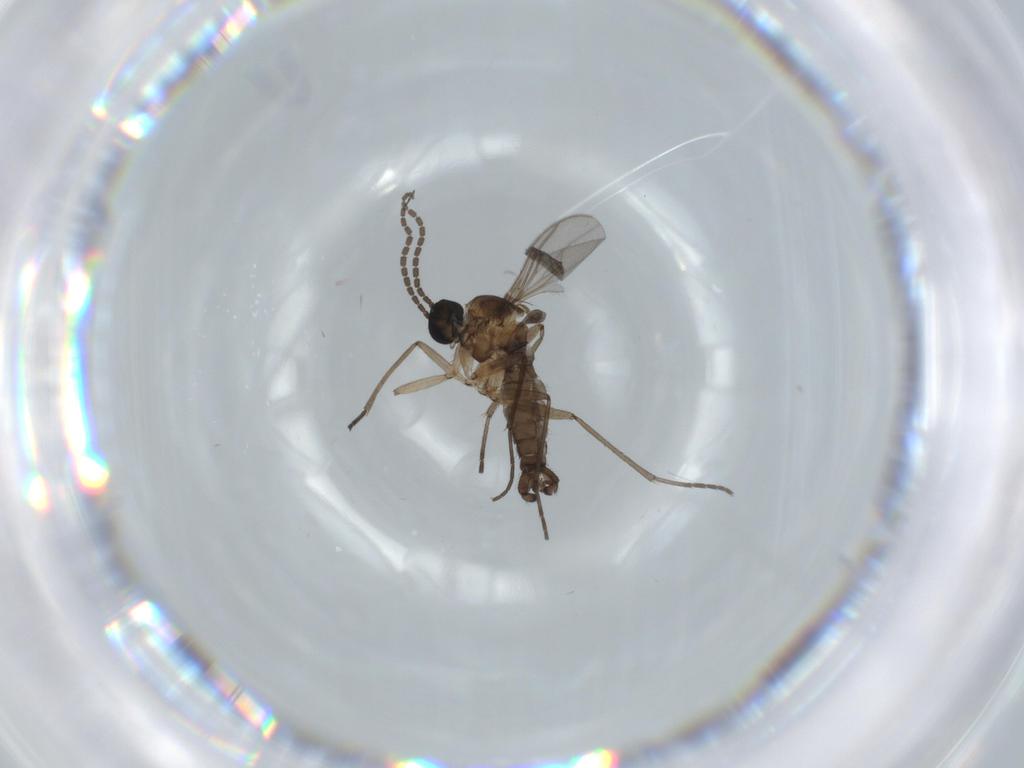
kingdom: Animalia
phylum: Arthropoda
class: Insecta
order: Diptera
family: Sciaridae
